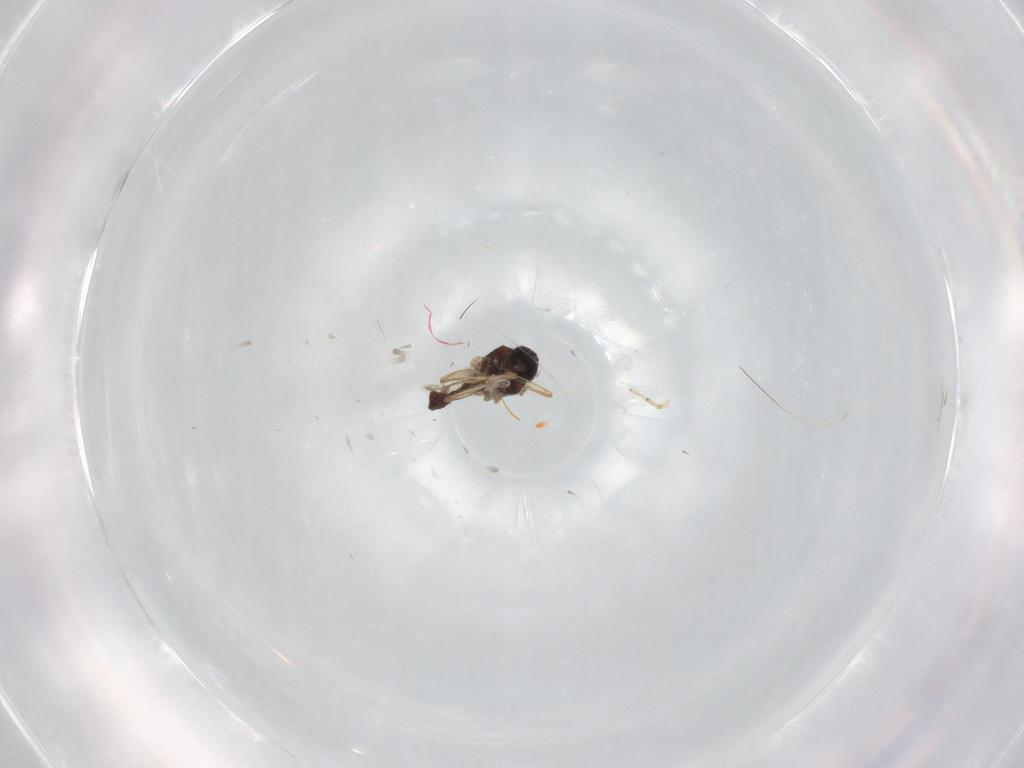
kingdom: Animalia
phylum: Arthropoda
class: Insecta
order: Diptera
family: Ceratopogonidae
